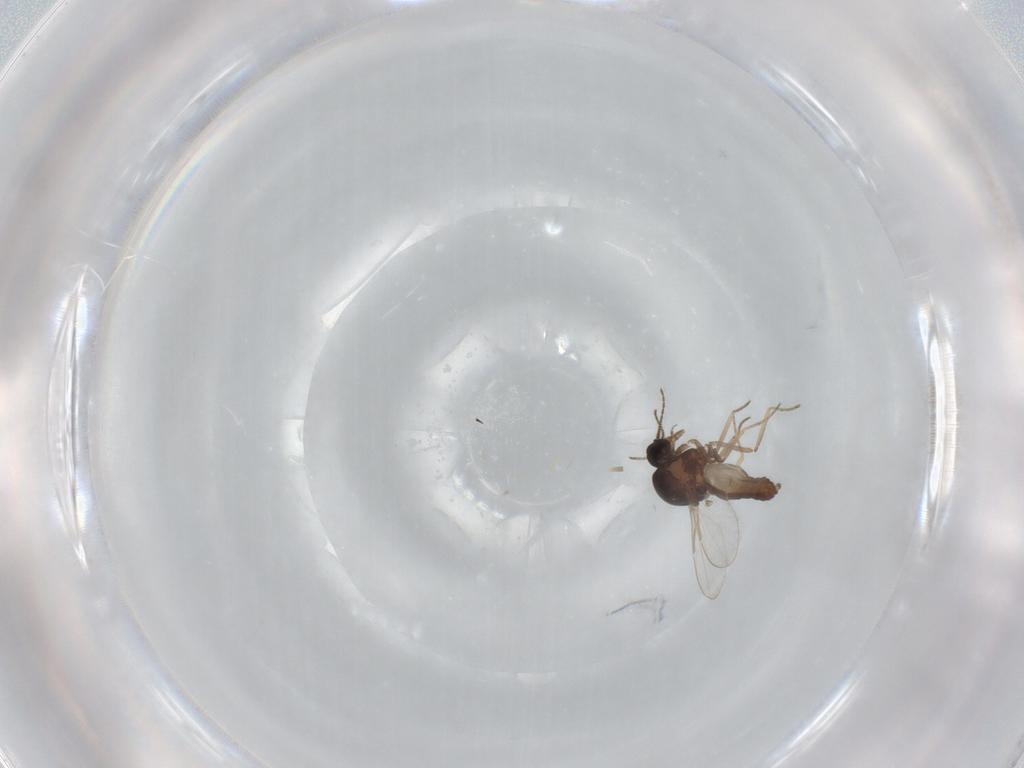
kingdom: Animalia
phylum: Arthropoda
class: Insecta
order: Diptera
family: Ceratopogonidae
